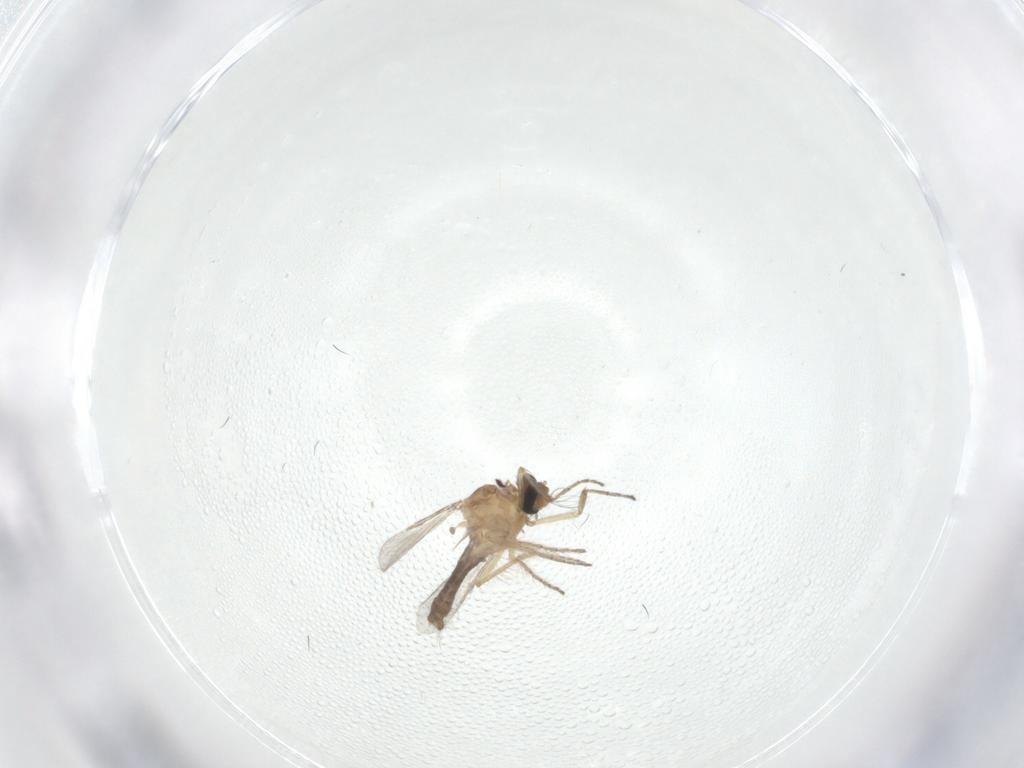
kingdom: Animalia
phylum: Arthropoda
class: Insecta
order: Diptera
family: Ceratopogonidae
